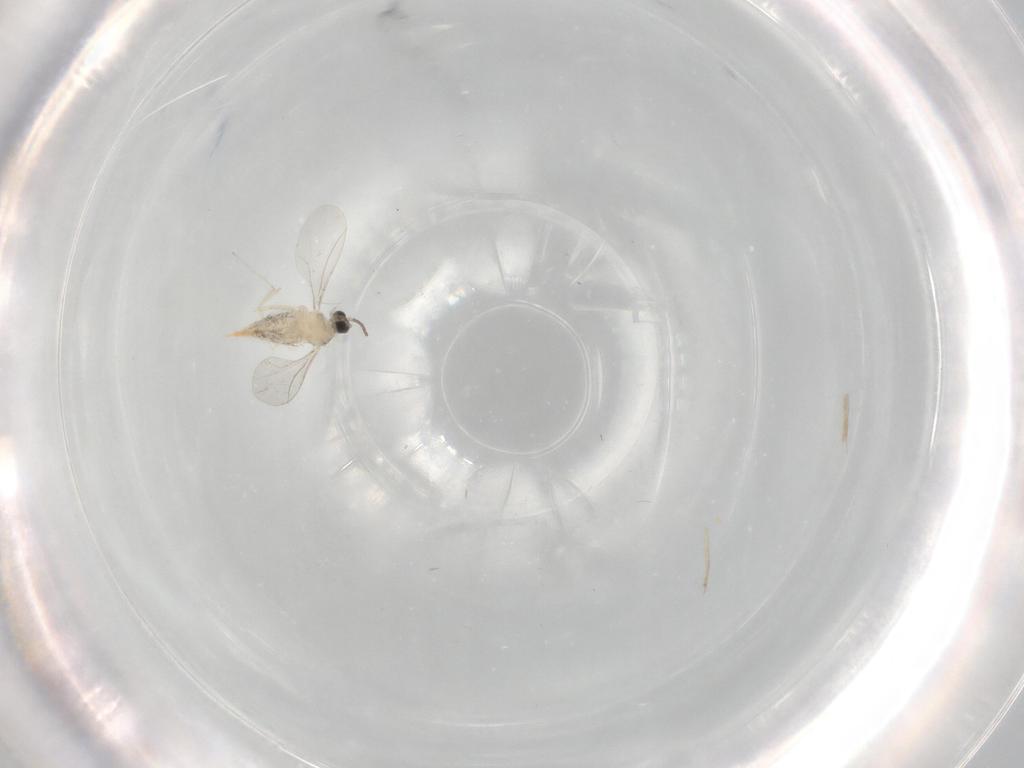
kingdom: Animalia
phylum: Arthropoda
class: Insecta
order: Diptera
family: Cecidomyiidae
